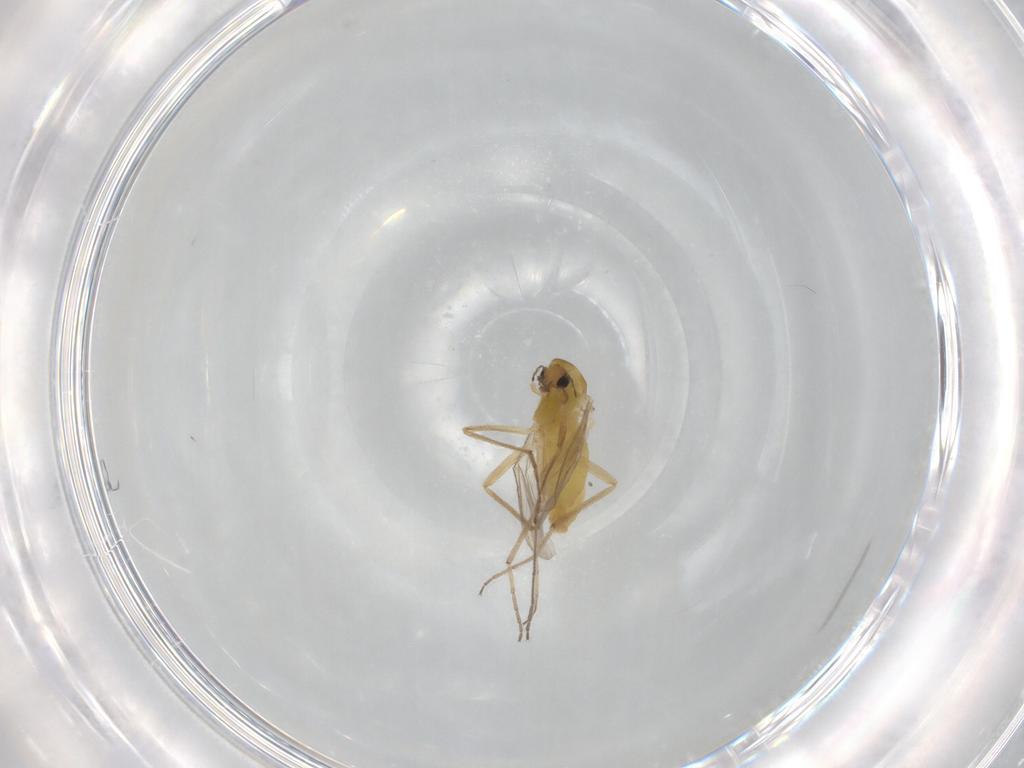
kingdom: Animalia
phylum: Arthropoda
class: Insecta
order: Diptera
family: Chironomidae
